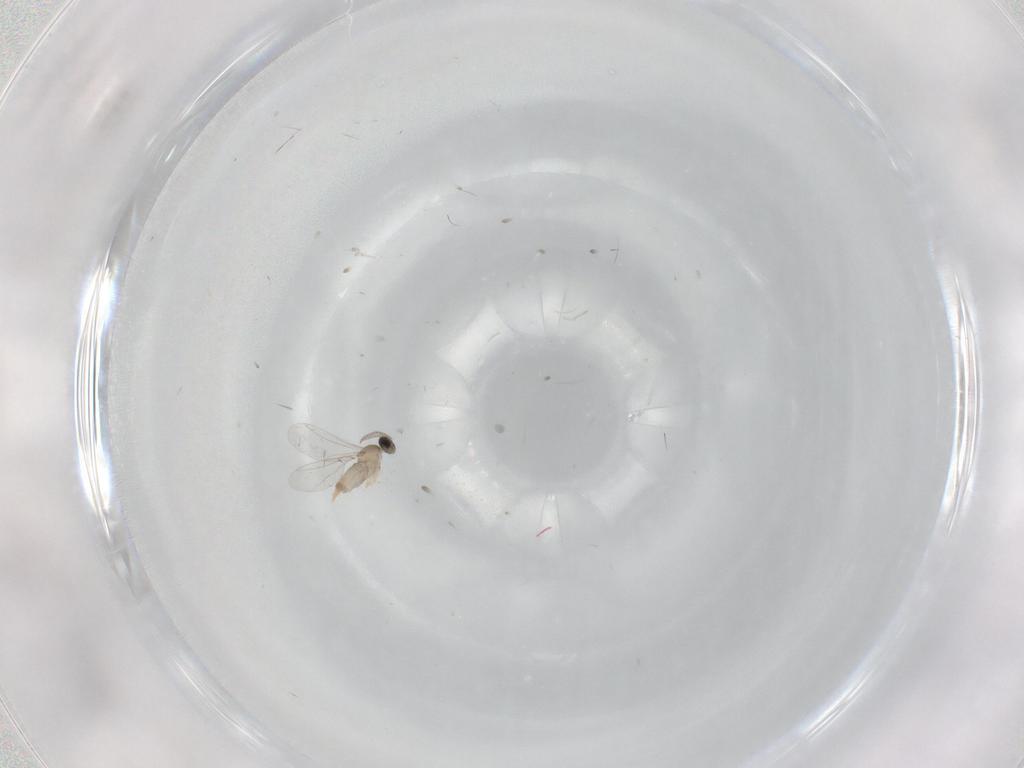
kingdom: Animalia
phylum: Arthropoda
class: Insecta
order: Diptera
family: Cecidomyiidae
